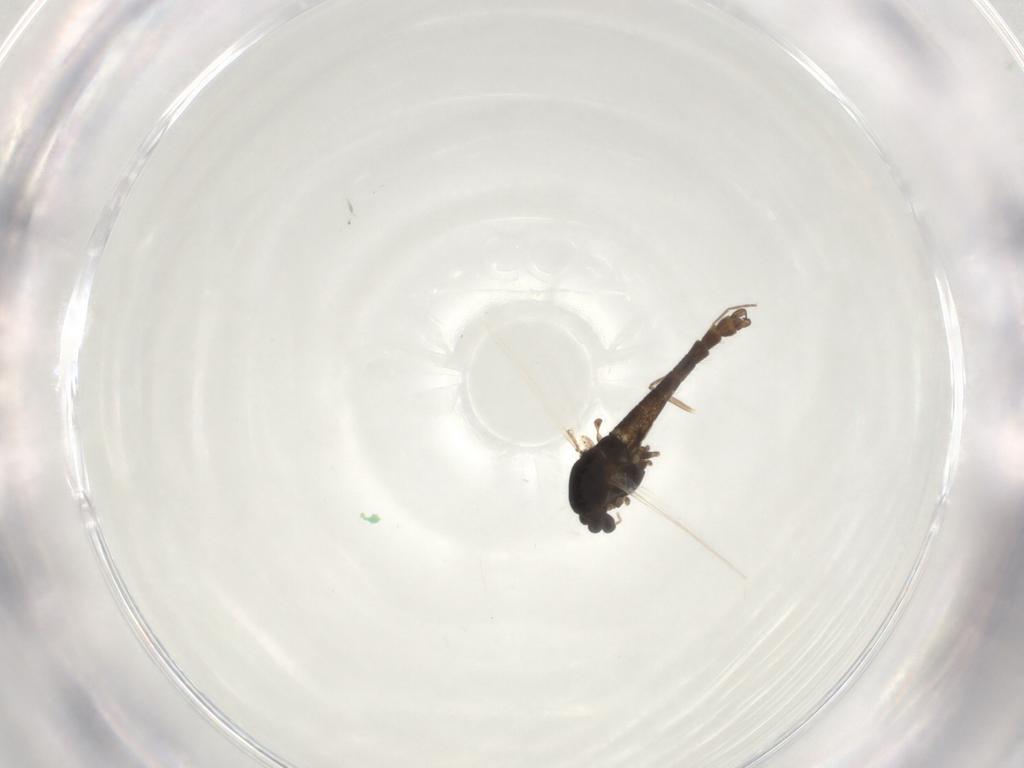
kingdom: Animalia
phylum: Arthropoda
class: Insecta
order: Diptera
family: Chironomidae
